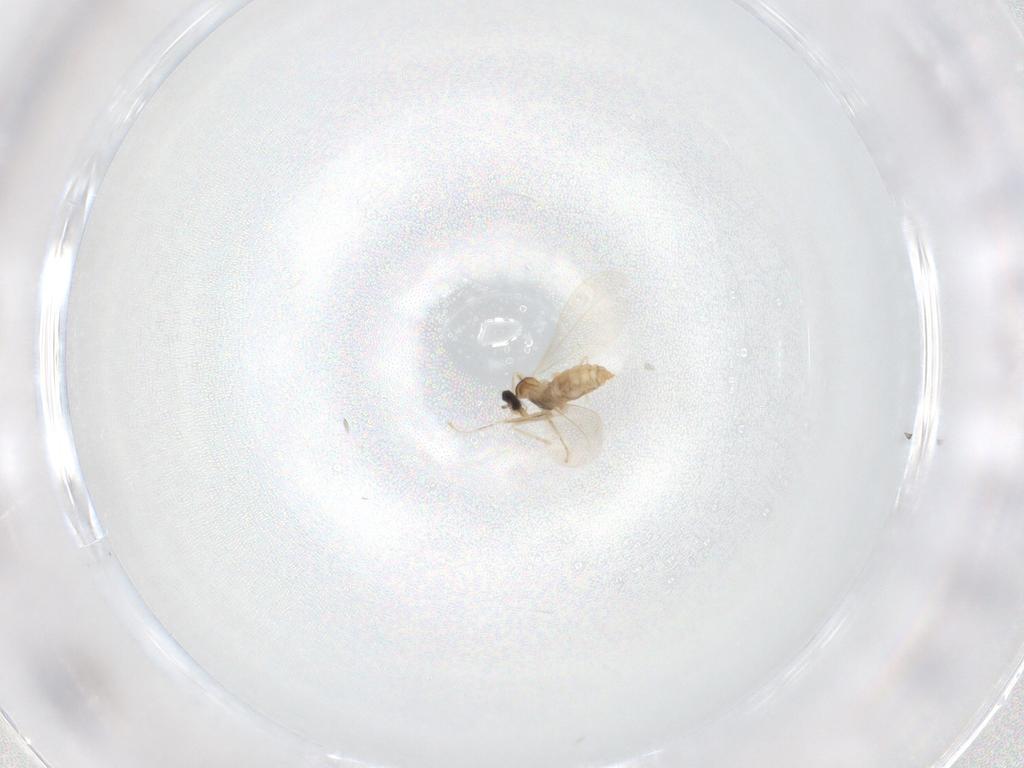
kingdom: Animalia
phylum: Arthropoda
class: Insecta
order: Diptera
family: Cecidomyiidae
